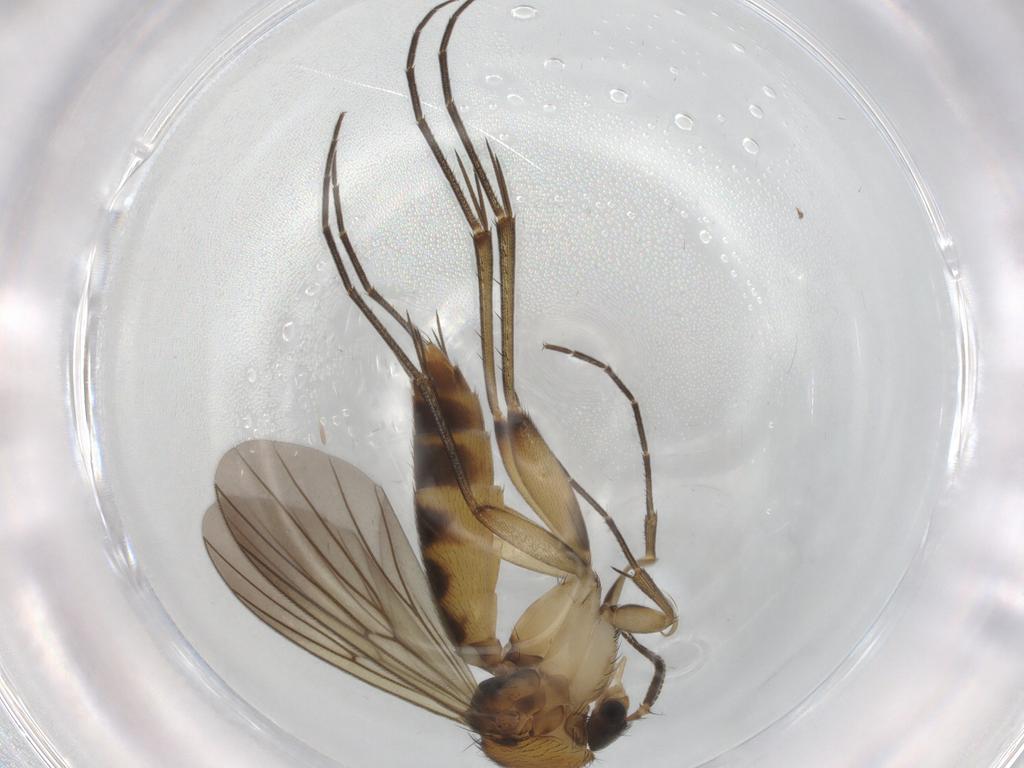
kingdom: Animalia
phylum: Arthropoda
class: Insecta
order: Diptera
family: Mycetophilidae
